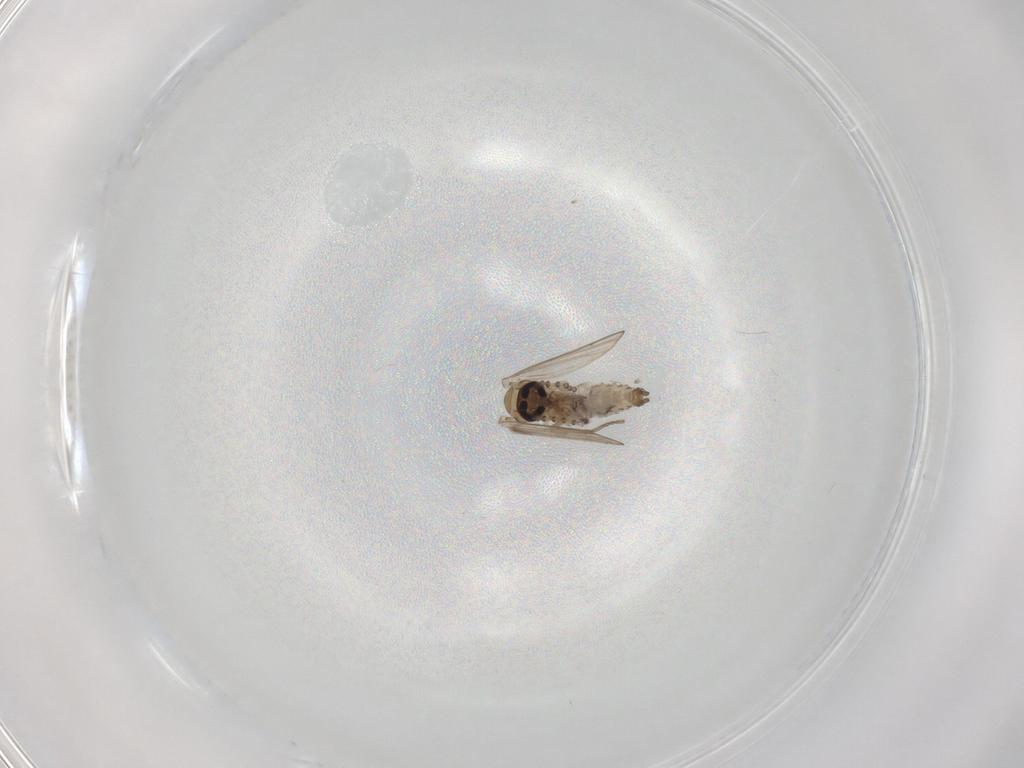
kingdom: Animalia
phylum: Arthropoda
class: Insecta
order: Diptera
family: Psychodidae
